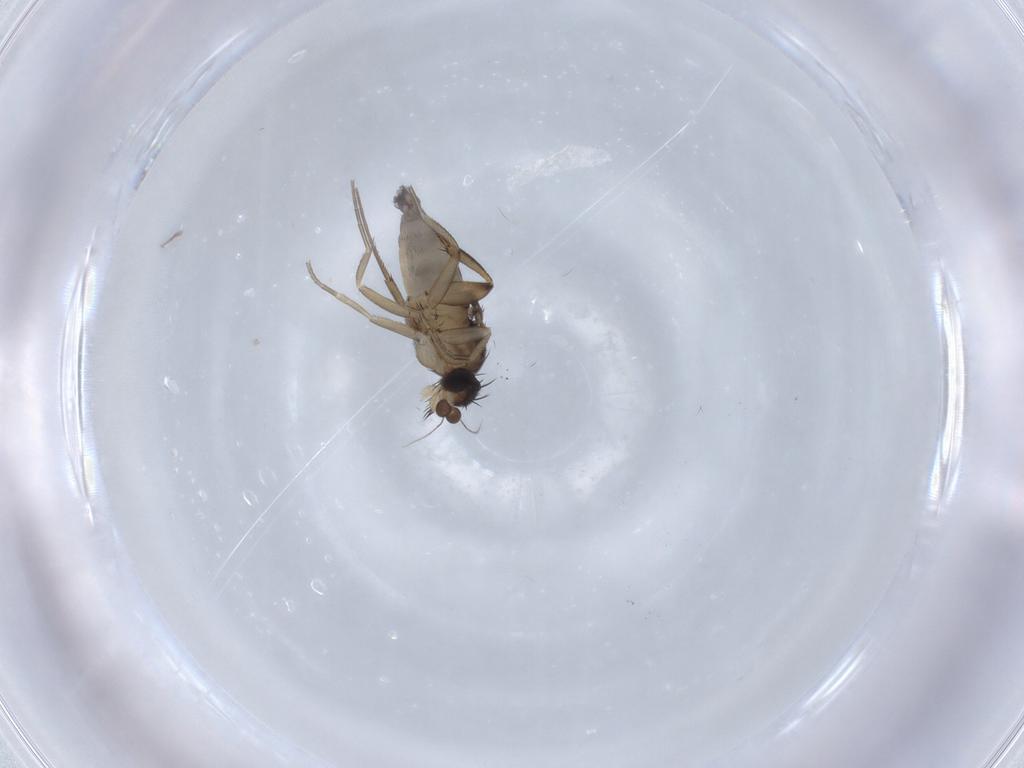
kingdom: Animalia
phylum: Arthropoda
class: Insecta
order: Diptera
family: Phoridae
